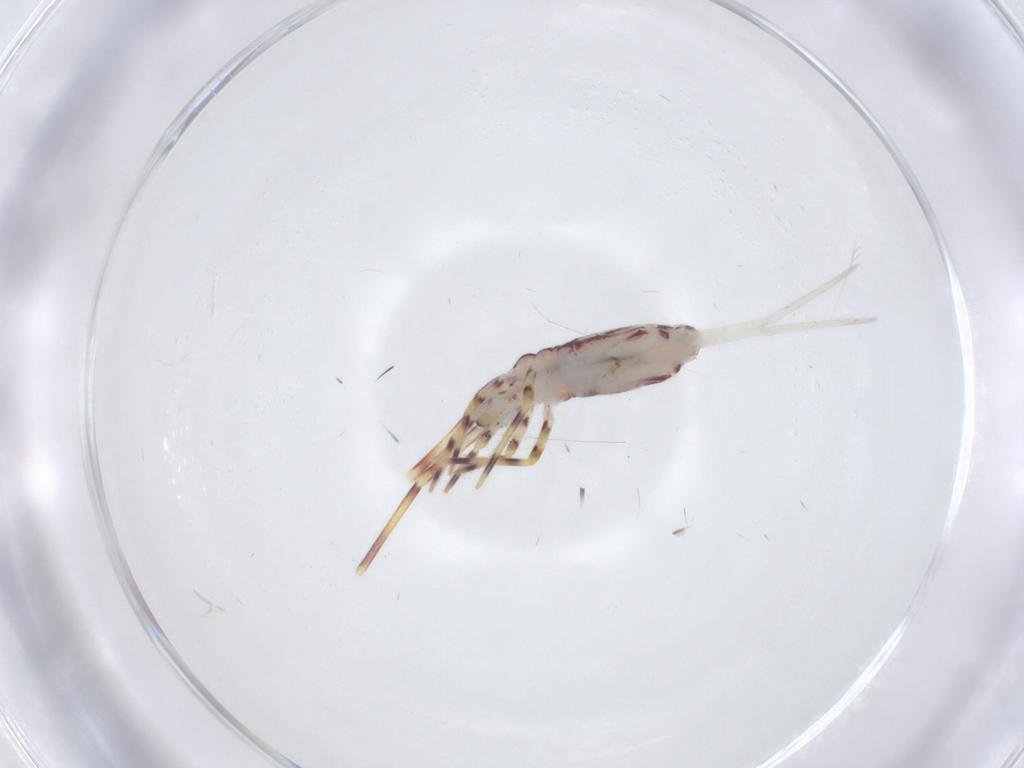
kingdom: Animalia
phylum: Arthropoda
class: Collembola
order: Entomobryomorpha
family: Entomobryidae
